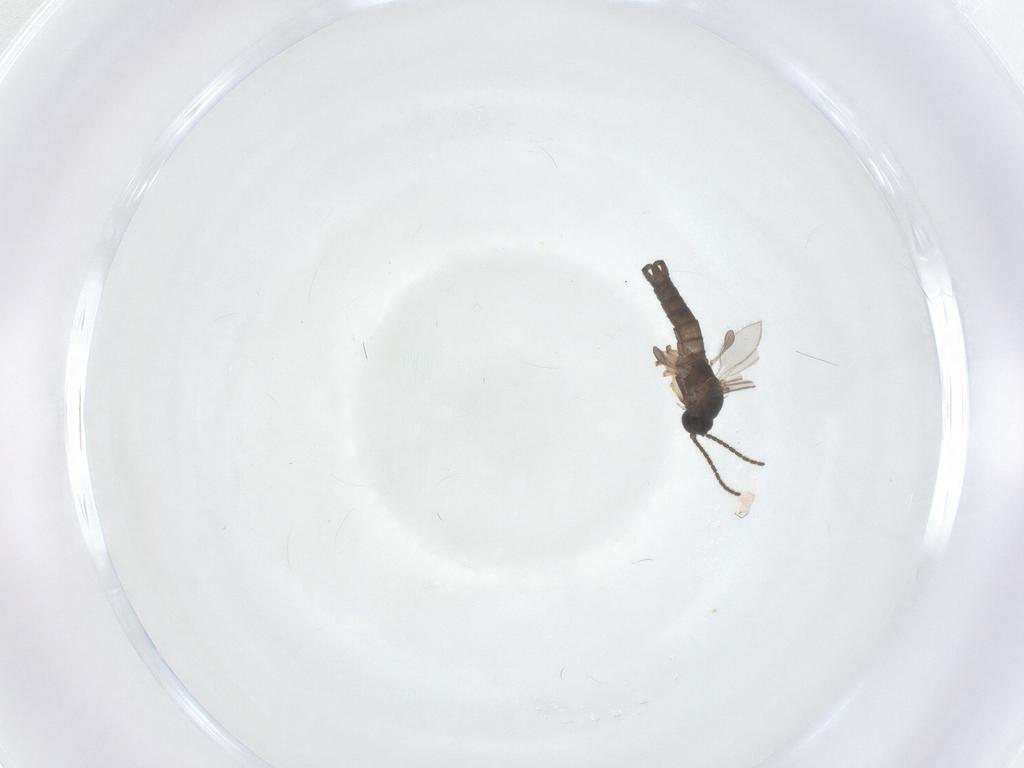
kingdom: Animalia
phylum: Arthropoda
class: Insecta
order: Diptera
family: Sciaridae
